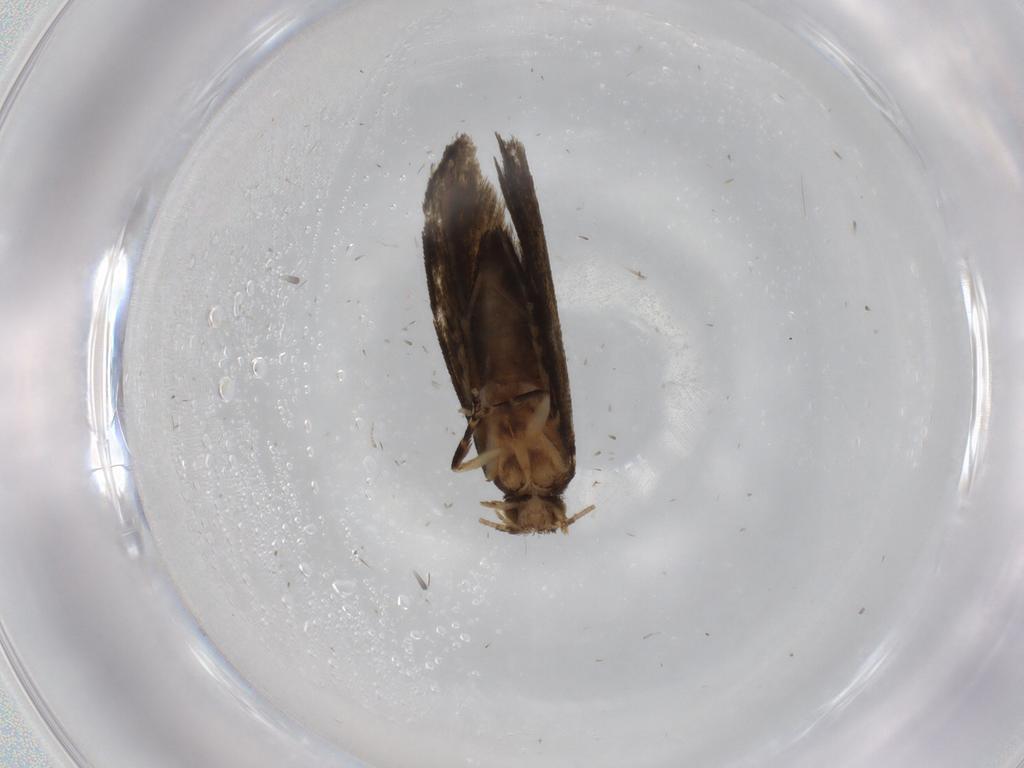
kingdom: Animalia
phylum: Arthropoda
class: Insecta
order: Lepidoptera
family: Crambidae
